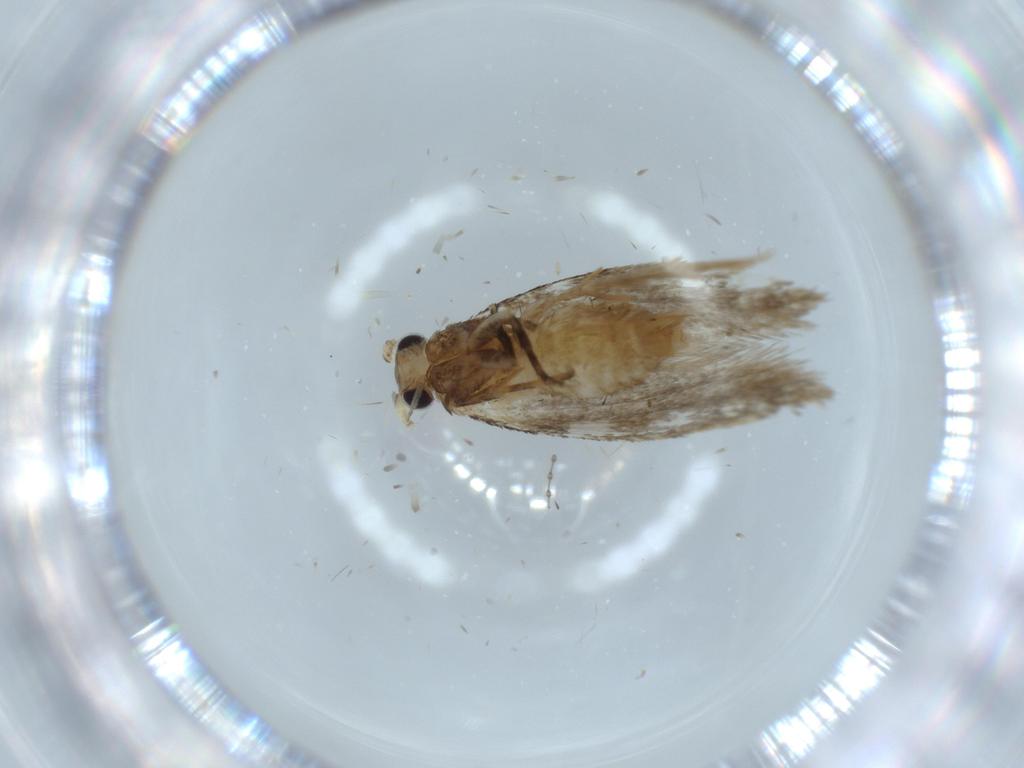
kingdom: Animalia
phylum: Arthropoda
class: Insecta
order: Lepidoptera
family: Tineidae
